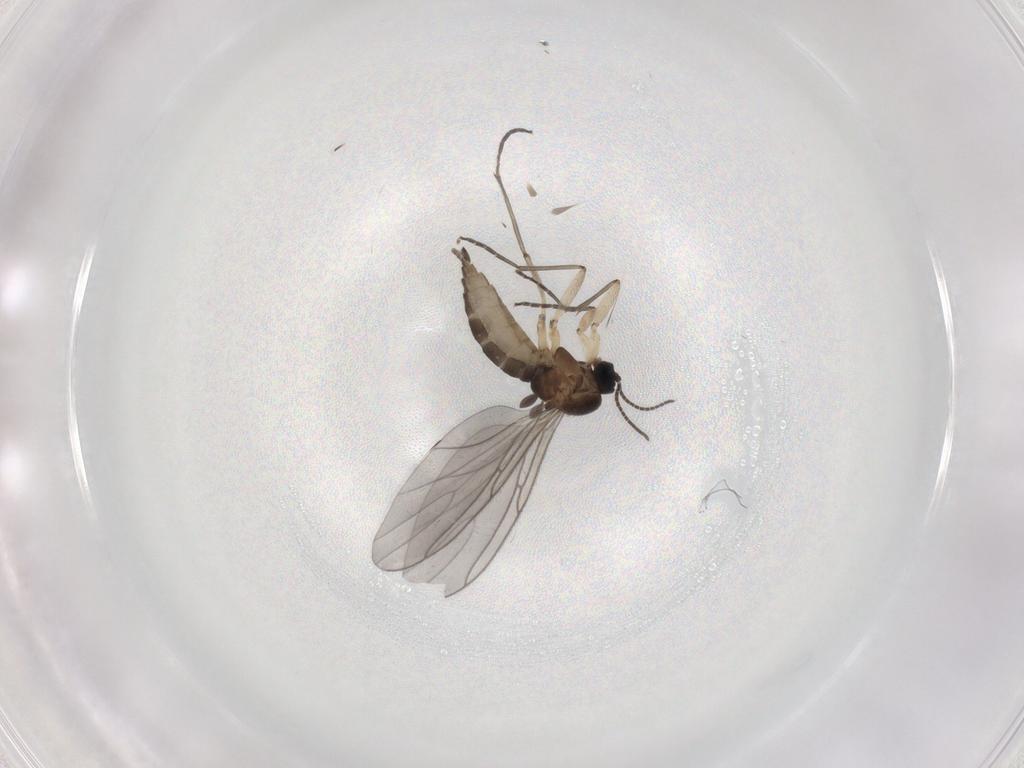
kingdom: Animalia
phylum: Arthropoda
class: Insecta
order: Diptera
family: Sciaridae
